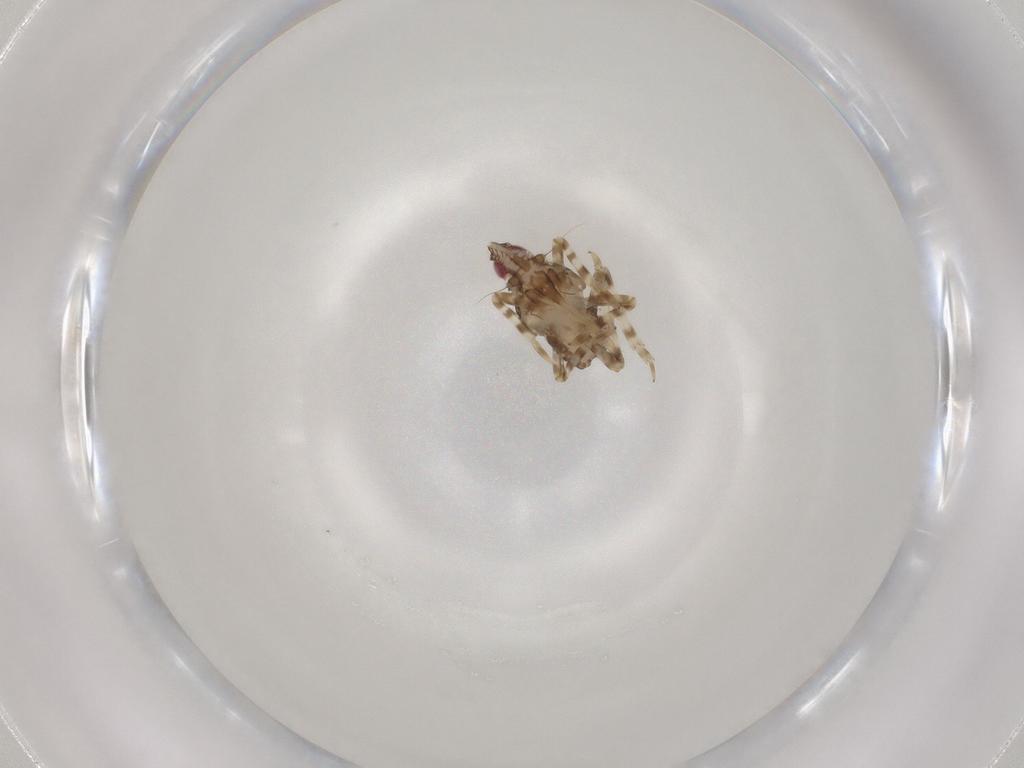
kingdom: Animalia
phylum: Arthropoda
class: Insecta
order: Hemiptera
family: Dictyopharidae
